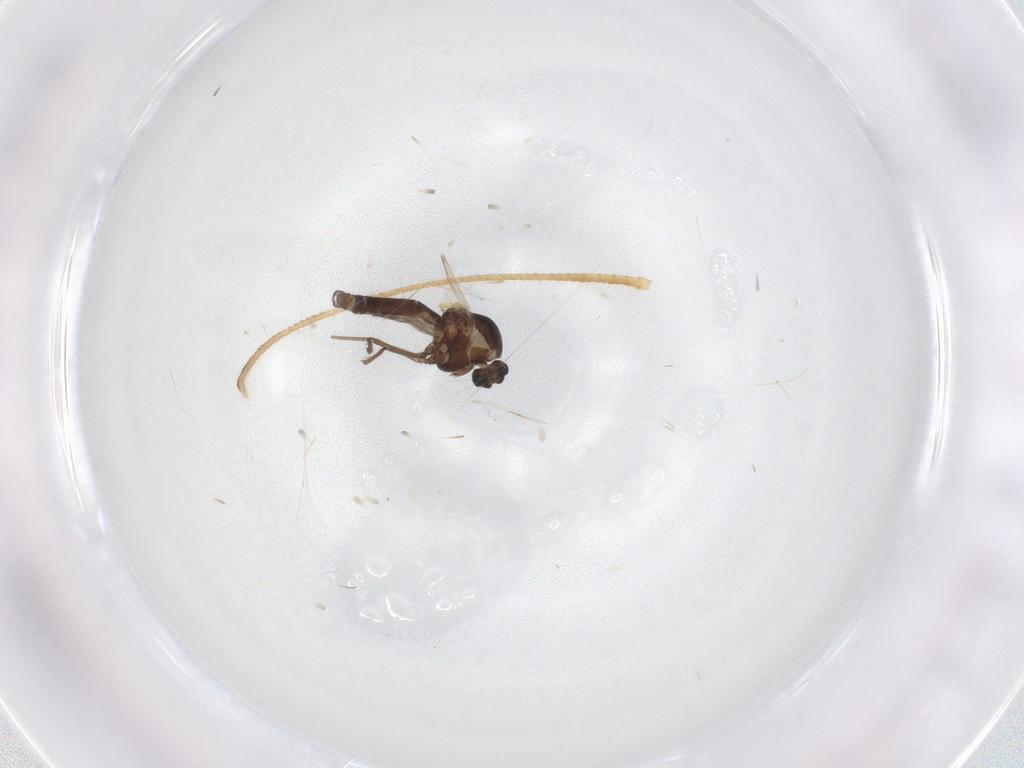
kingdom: Animalia
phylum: Arthropoda
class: Insecta
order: Diptera
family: Ceratopogonidae
